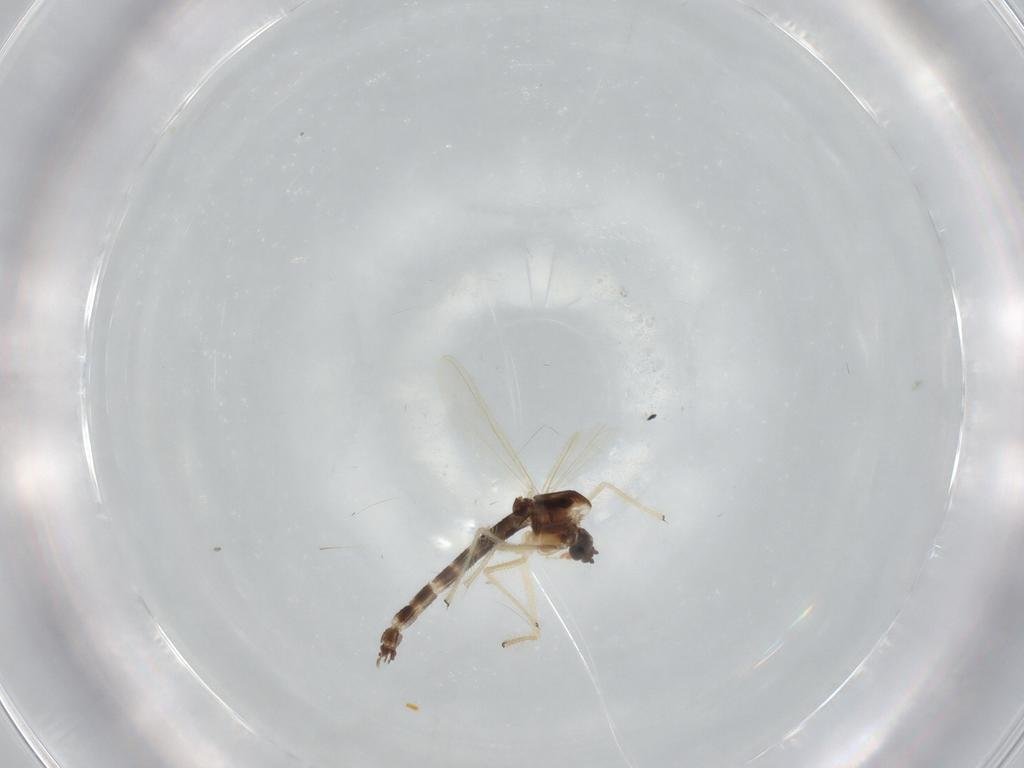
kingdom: Animalia
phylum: Arthropoda
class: Insecta
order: Diptera
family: Chironomidae
